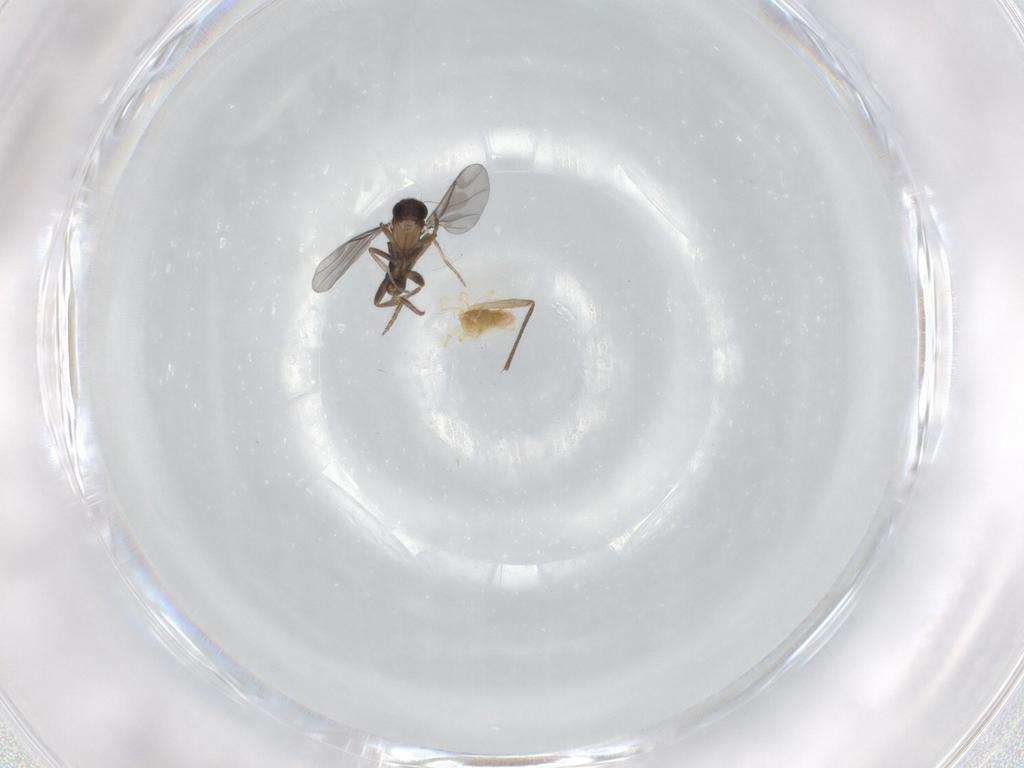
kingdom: Animalia
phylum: Arthropoda
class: Insecta
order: Diptera
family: Chironomidae
